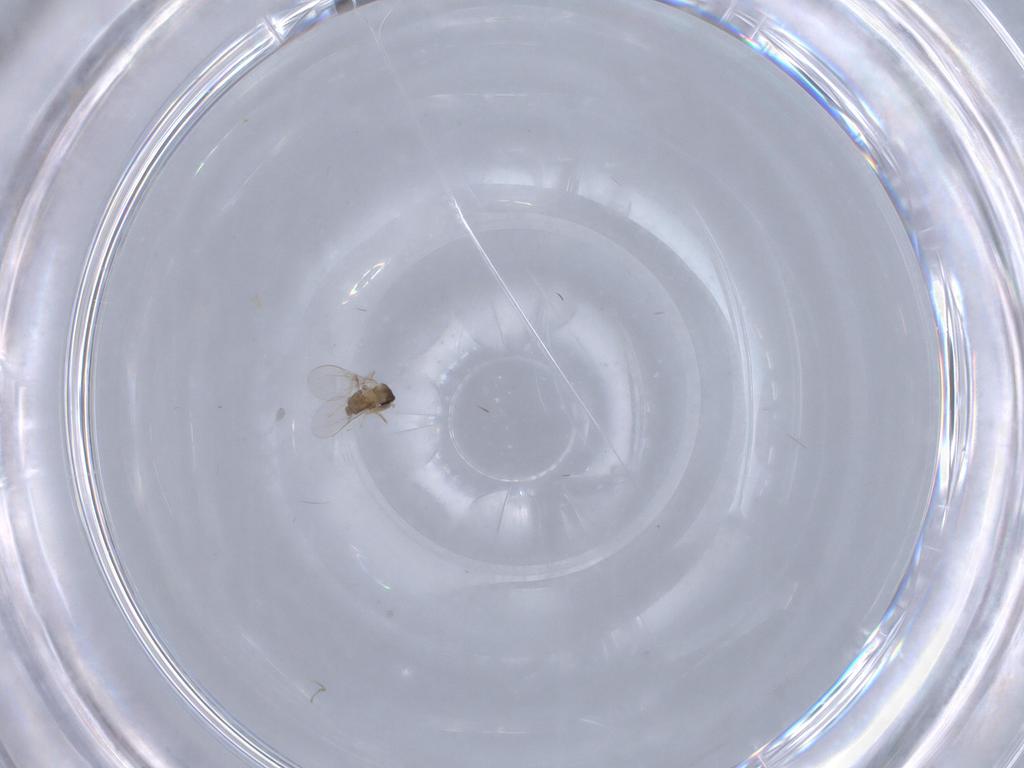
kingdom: Animalia
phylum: Arthropoda
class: Insecta
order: Diptera
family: Cecidomyiidae
